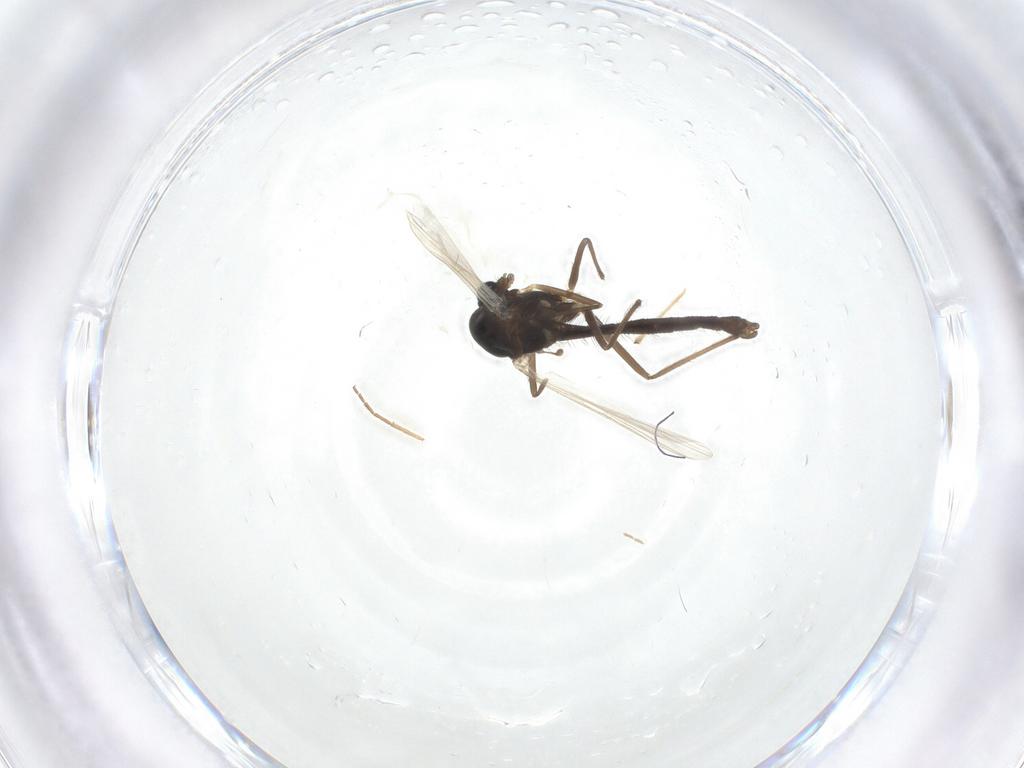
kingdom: Animalia
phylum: Arthropoda
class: Insecta
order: Diptera
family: Chironomidae
